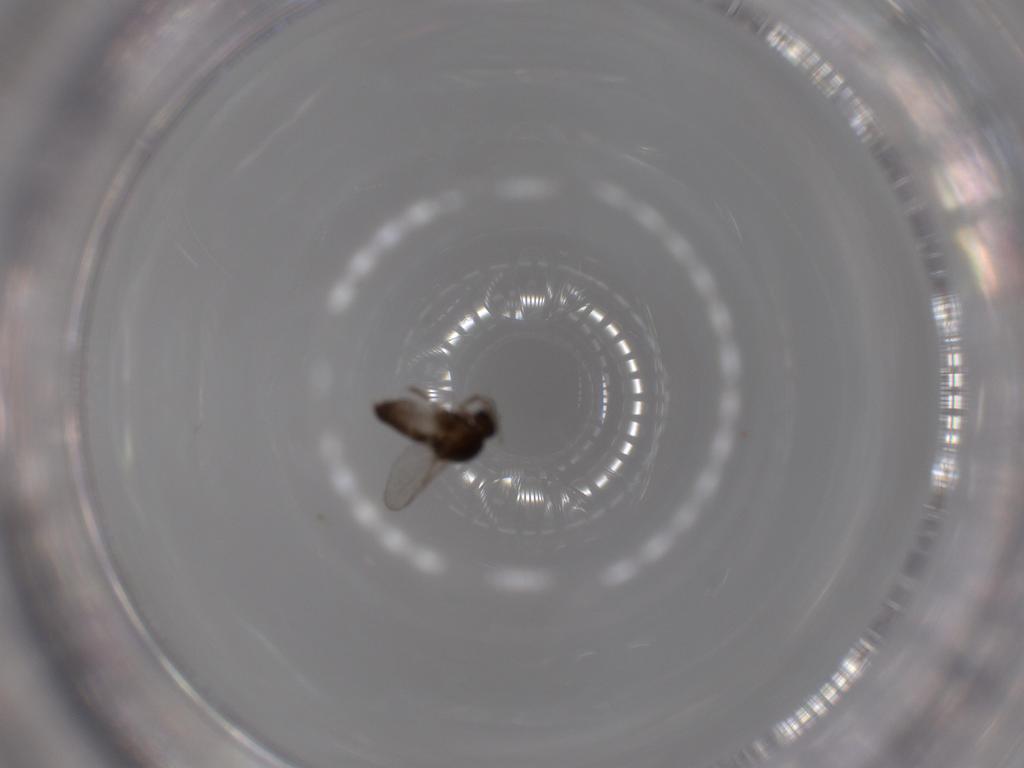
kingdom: Animalia
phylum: Arthropoda
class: Insecta
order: Diptera
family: Ceratopogonidae
